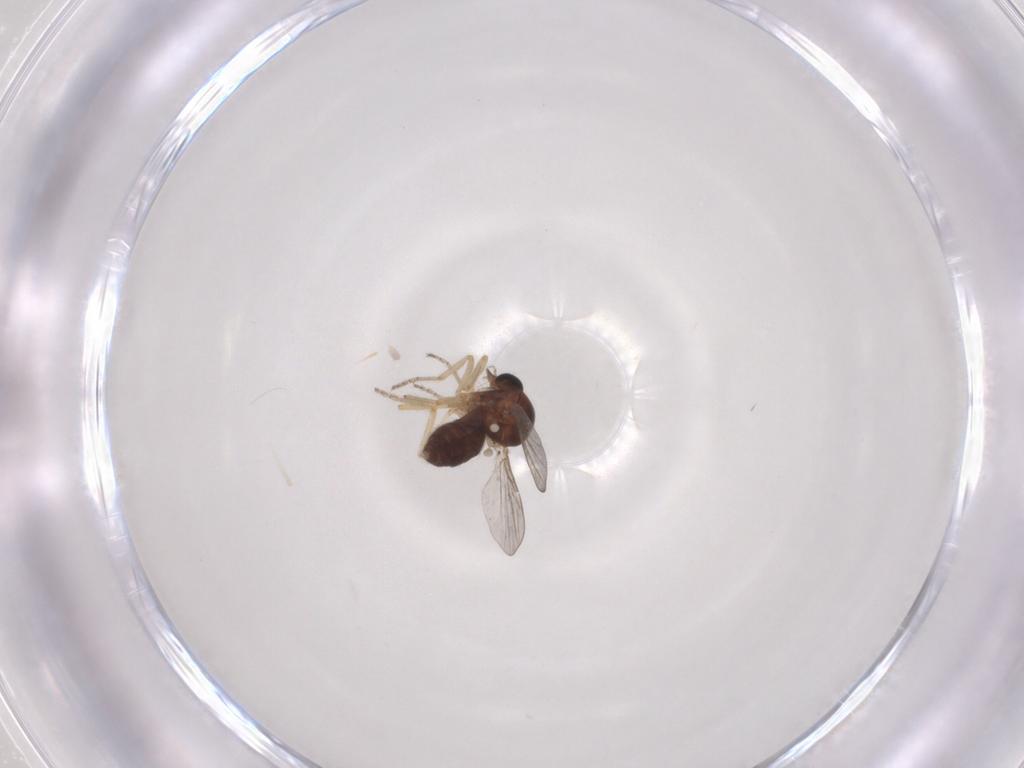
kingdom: Animalia
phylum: Arthropoda
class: Insecta
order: Diptera
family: Ceratopogonidae
